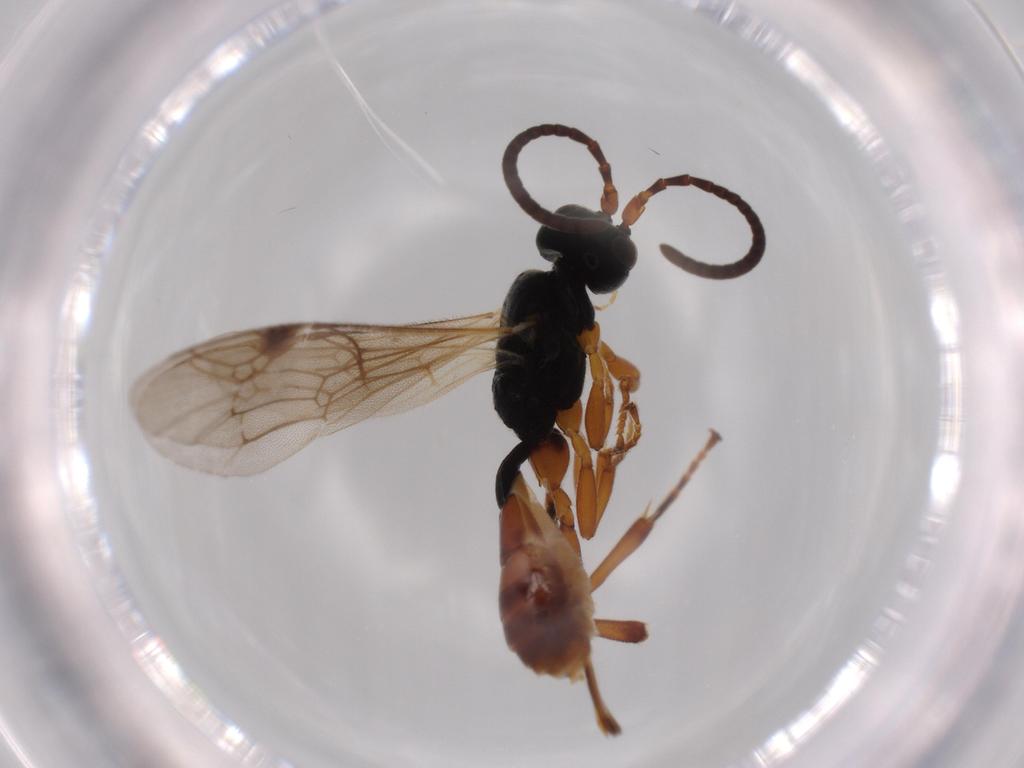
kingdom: Animalia
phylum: Arthropoda
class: Insecta
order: Hymenoptera
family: Ichneumonidae
